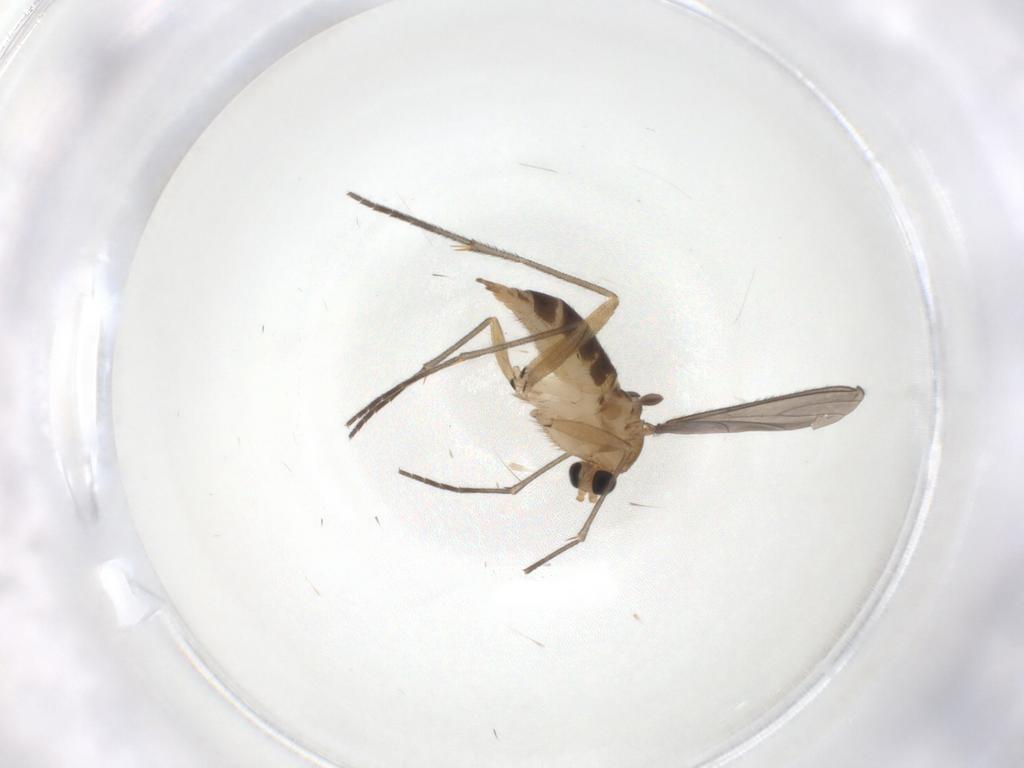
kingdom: Animalia
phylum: Arthropoda
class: Insecta
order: Diptera
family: Sciaridae
